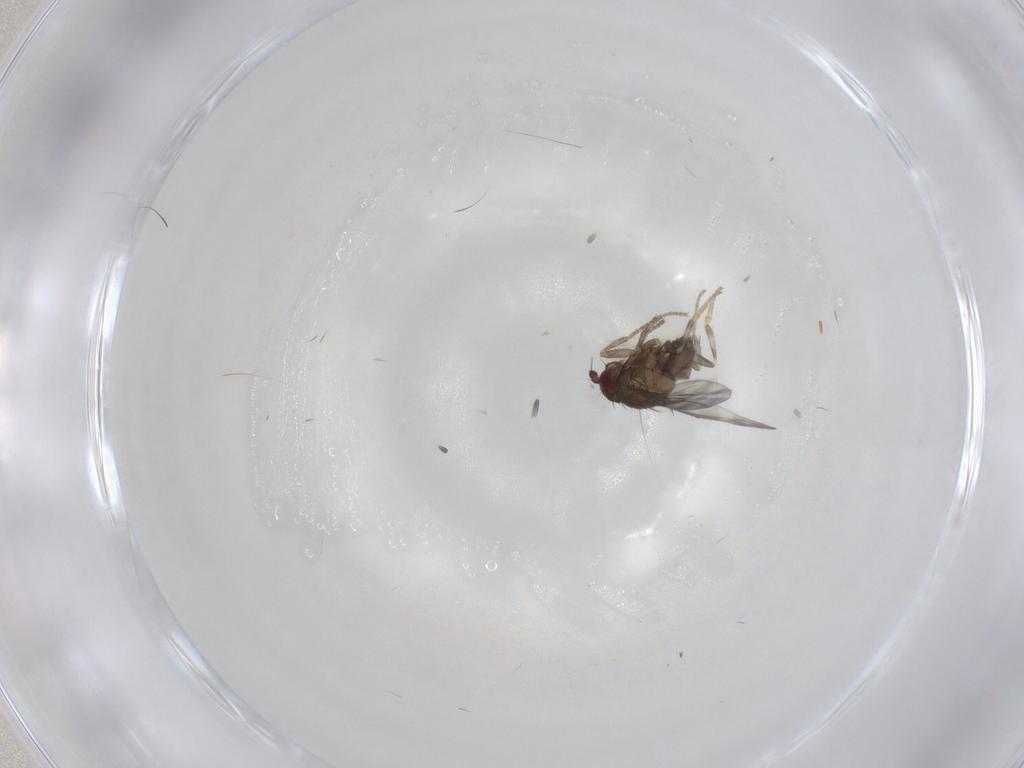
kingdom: Animalia
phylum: Arthropoda
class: Insecta
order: Diptera
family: Sphaeroceridae
